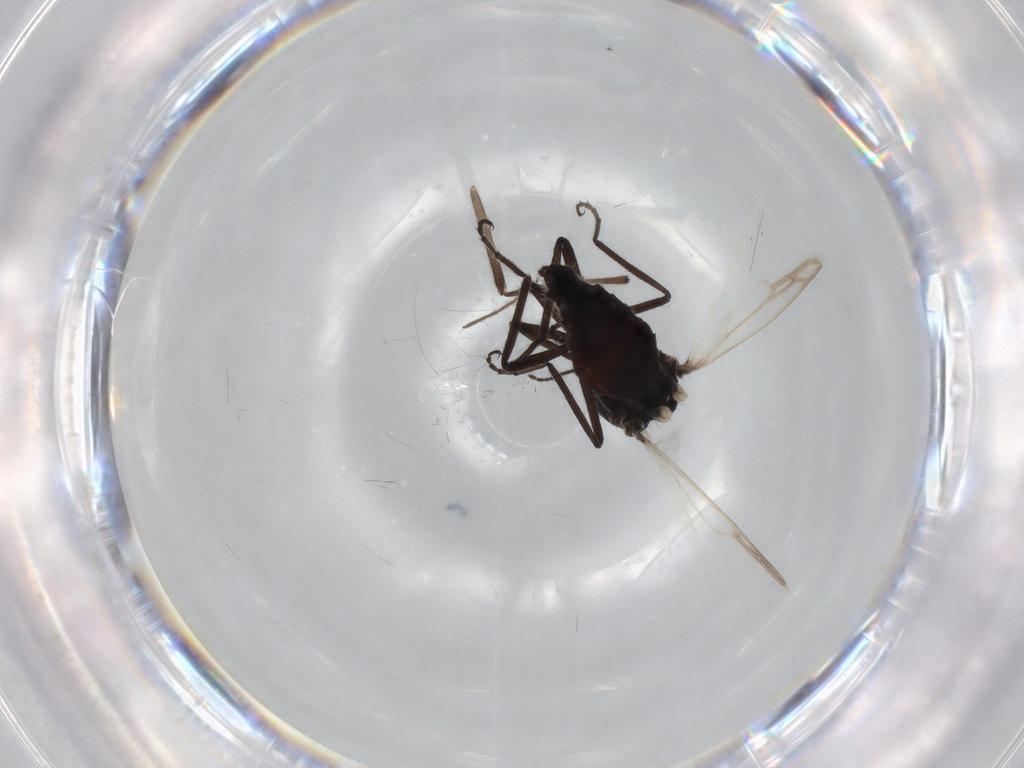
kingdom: Animalia
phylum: Arthropoda
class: Insecta
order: Diptera
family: Ceratopogonidae
